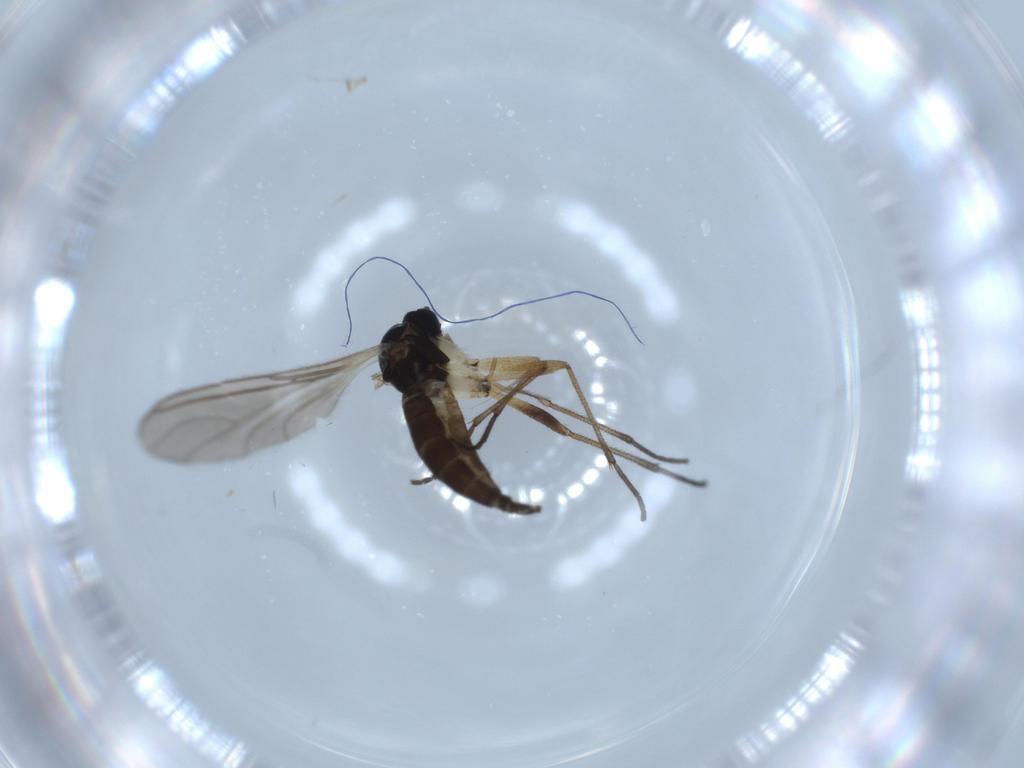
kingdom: Animalia
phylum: Arthropoda
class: Insecta
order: Diptera
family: Sciaridae
